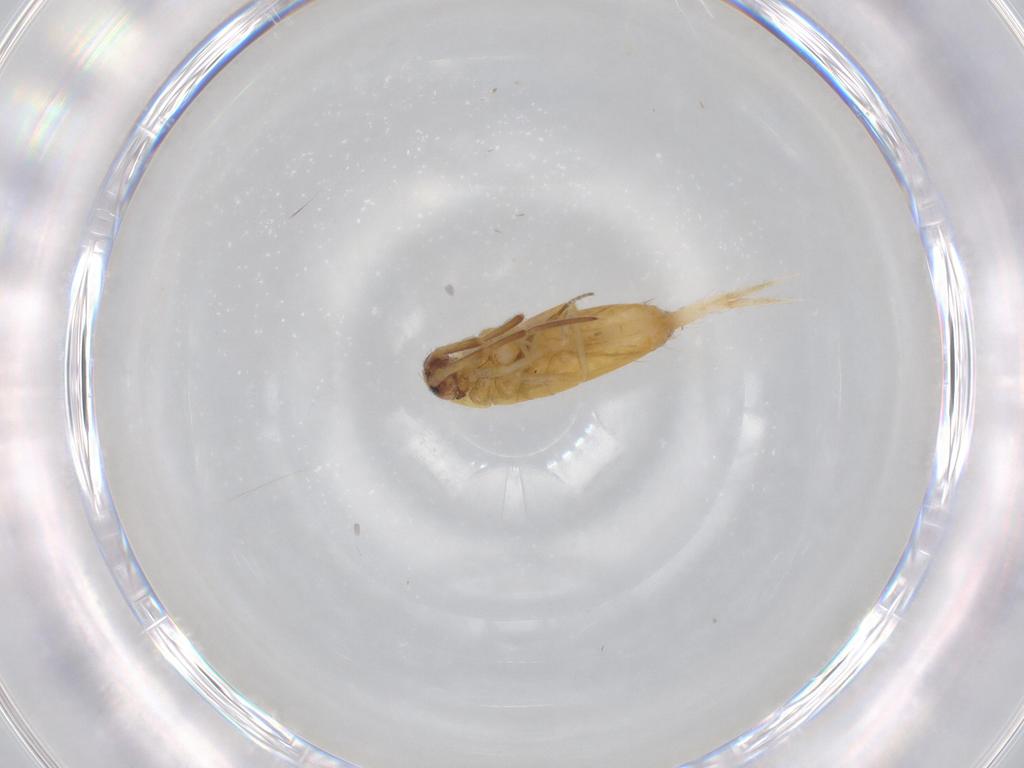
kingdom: Animalia
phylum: Arthropoda
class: Collembola
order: Entomobryomorpha
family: Entomobryidae
